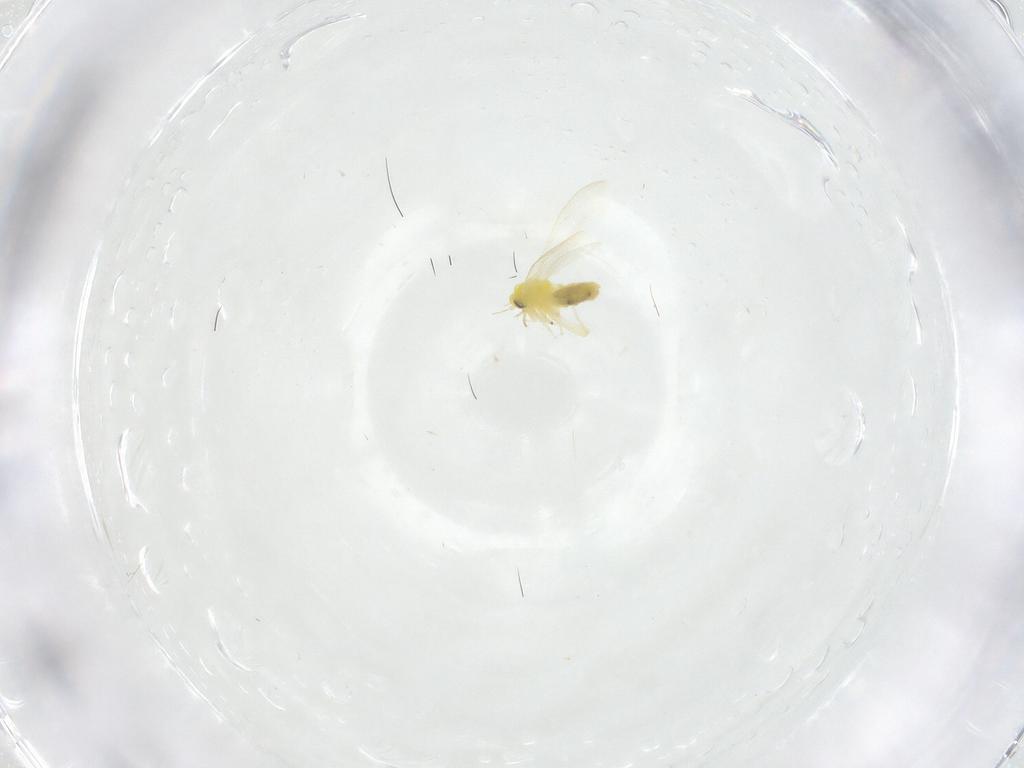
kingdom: Animalia
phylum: Arthropoda
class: Insecta
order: Hemiptera
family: Aleyrodidae
